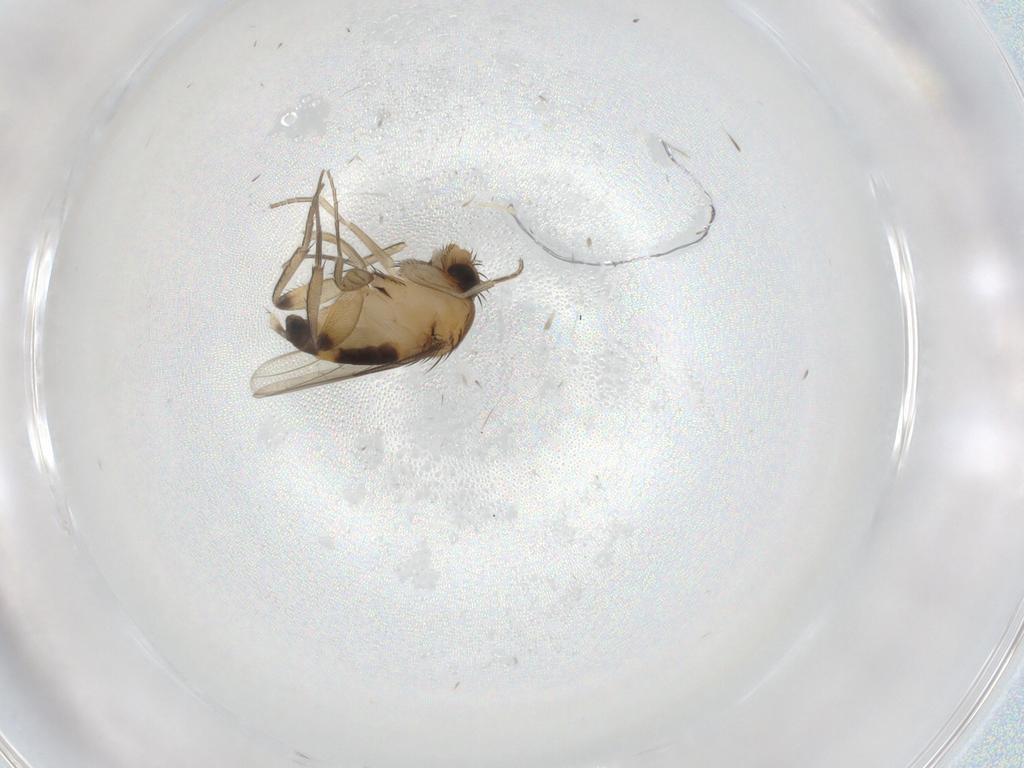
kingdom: Animalia
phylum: Arthropoda
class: Insecta
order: Diptera
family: Phoridae
